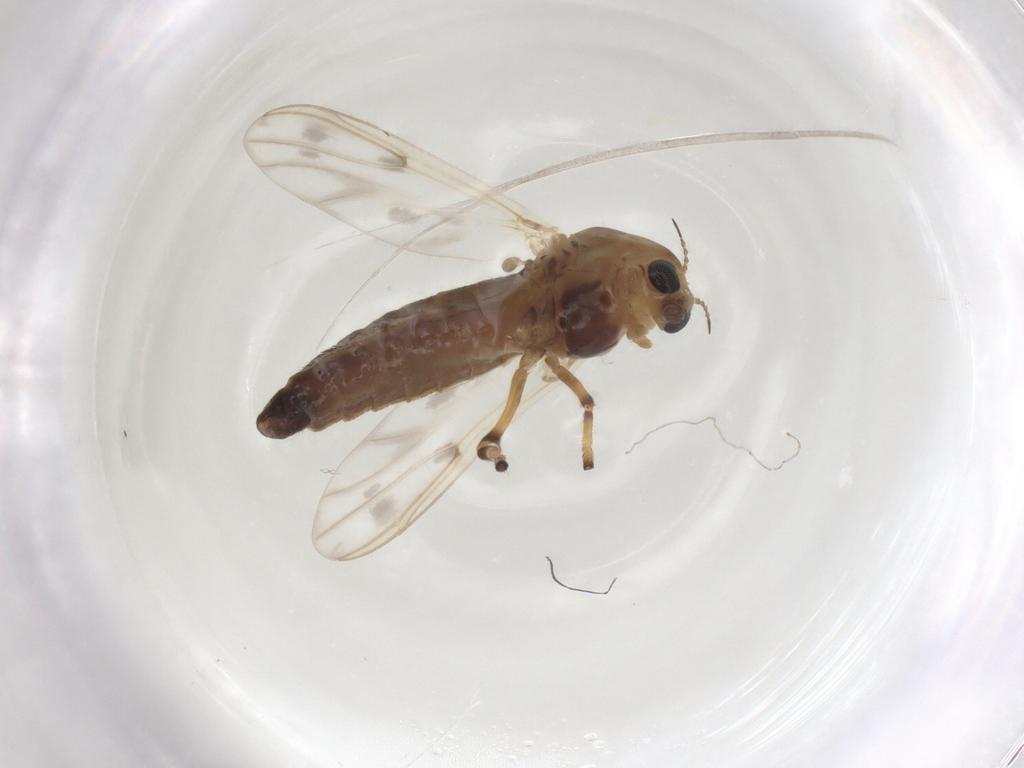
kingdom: Animalia
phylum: Arthropoda
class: Insecta
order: Diptera
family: Chironomidae
